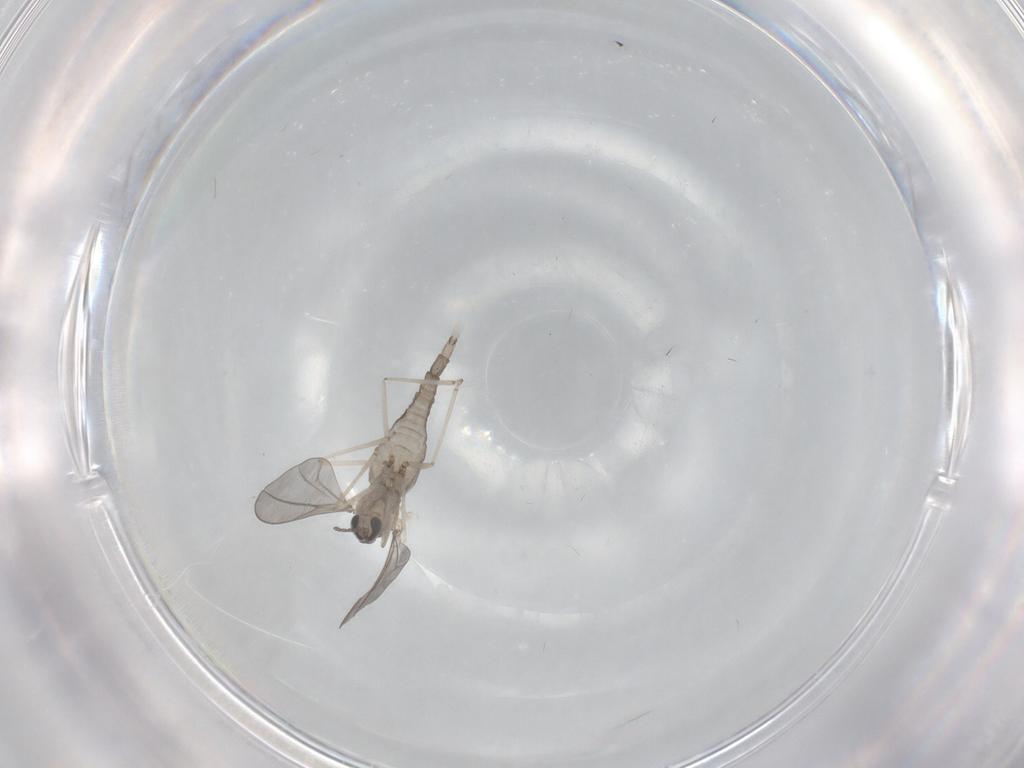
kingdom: Animalia
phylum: Arthropoda
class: Insecta
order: Diptera
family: Cecidomyiidae
